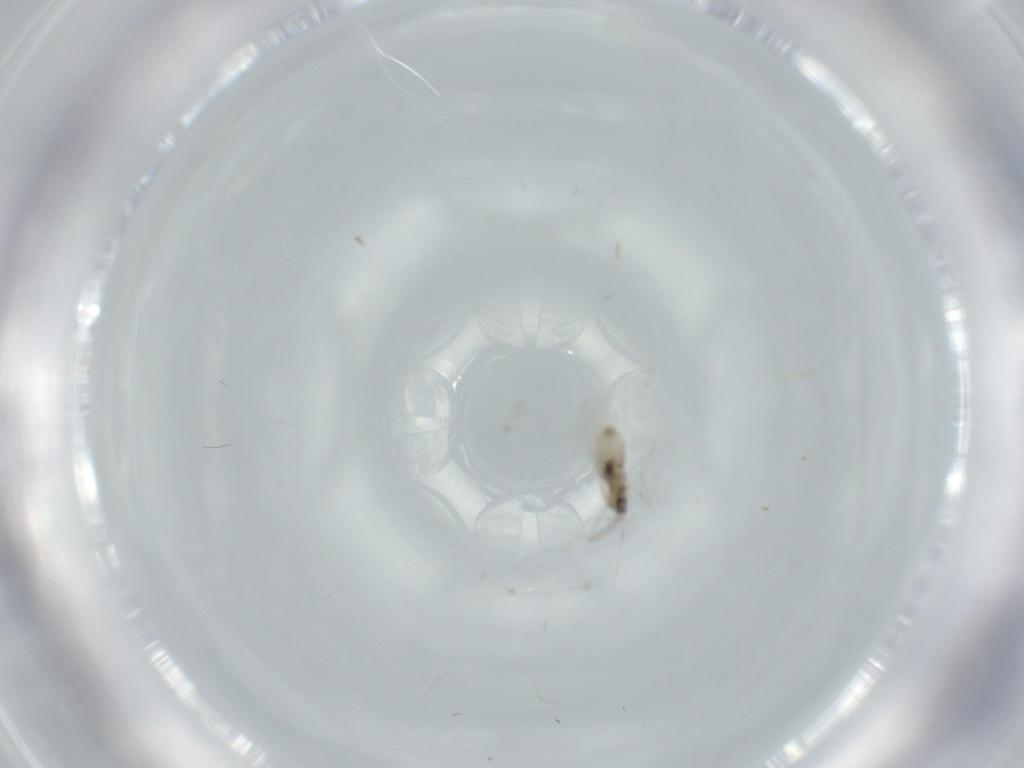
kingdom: Animalia
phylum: Arthropoda
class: Insecta
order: Diptera
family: Cecidomyiidae
